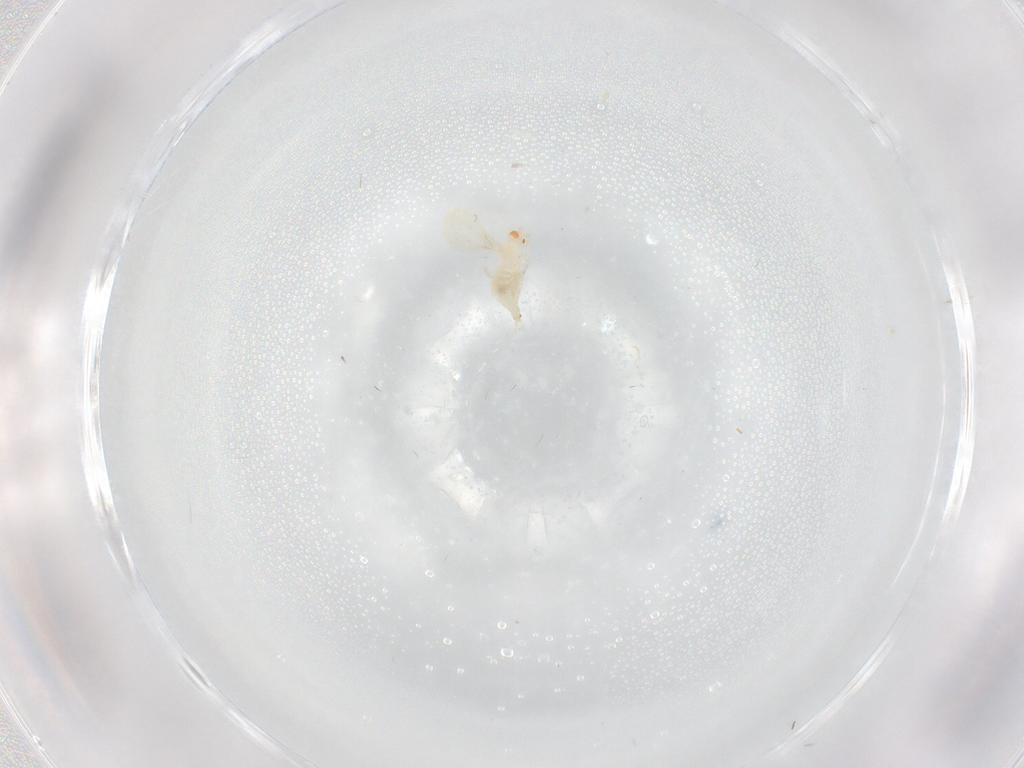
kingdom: Animalia
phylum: Arthropoda
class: Insecta
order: Diptera
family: Cecidomyiidae
